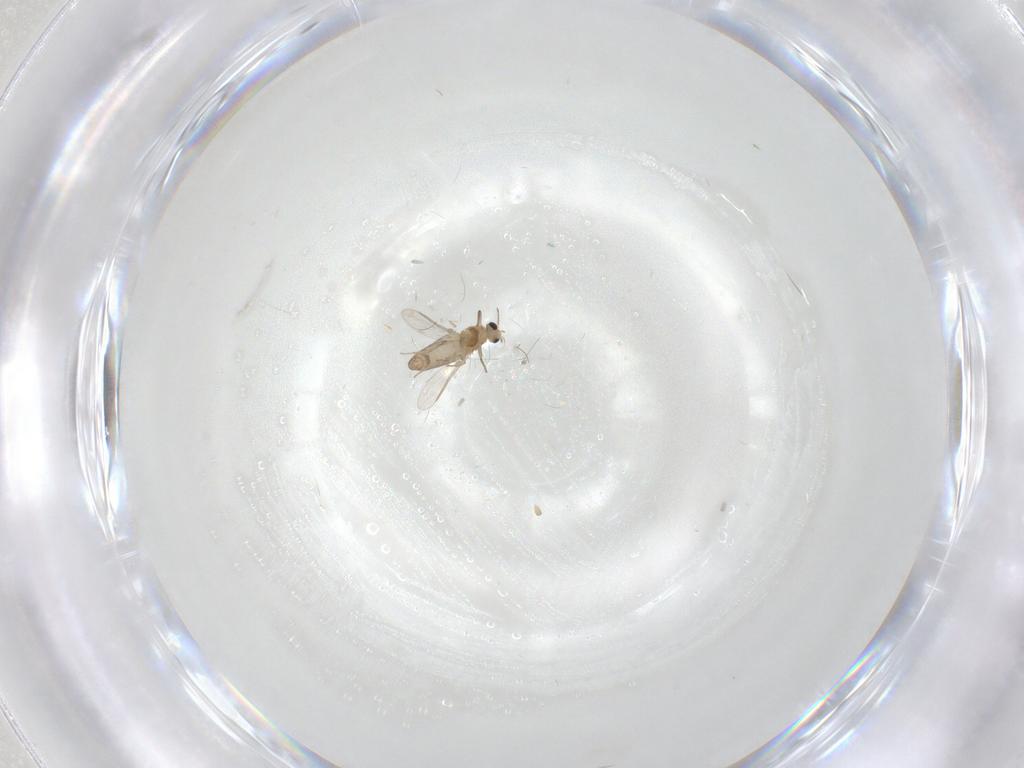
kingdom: Animalia
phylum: Arthropoda
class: Insecta
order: Diptera
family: Chironomidae
